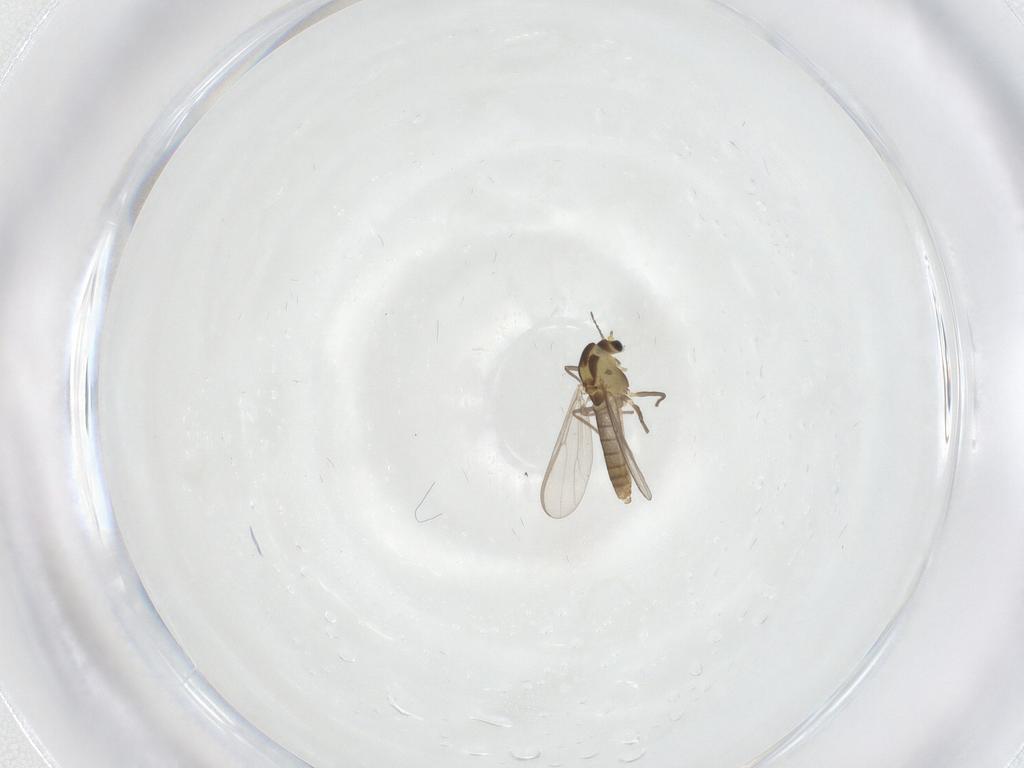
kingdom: Animalia
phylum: Arthropoda
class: Insecta
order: Diptera
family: Chironomidae
